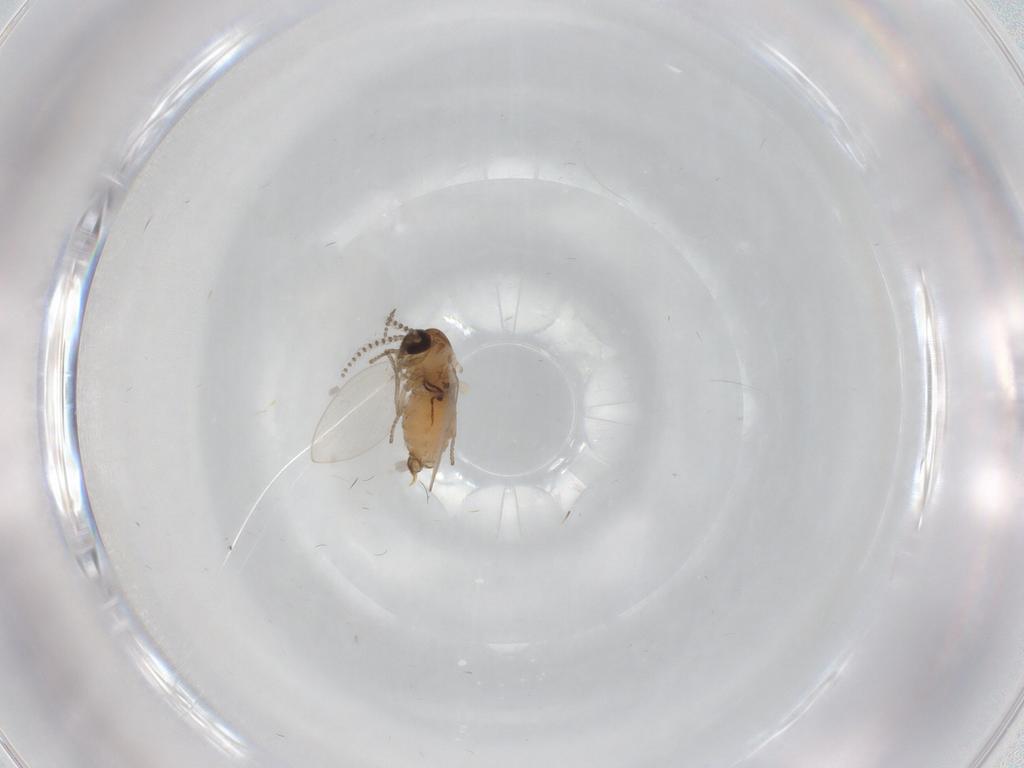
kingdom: Animalia
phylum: Arthropoda
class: Insecta
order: Diptera
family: Psychodidae
